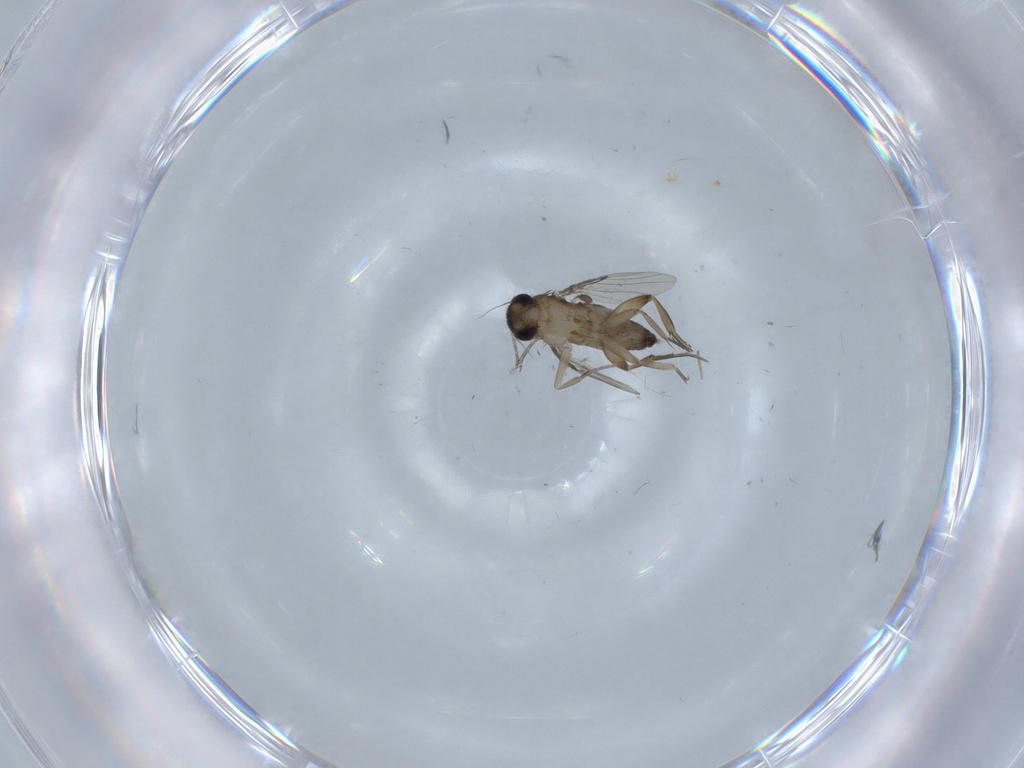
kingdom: Animalia
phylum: Arthropoda
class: Insecta
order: Diptera
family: Phoridae
